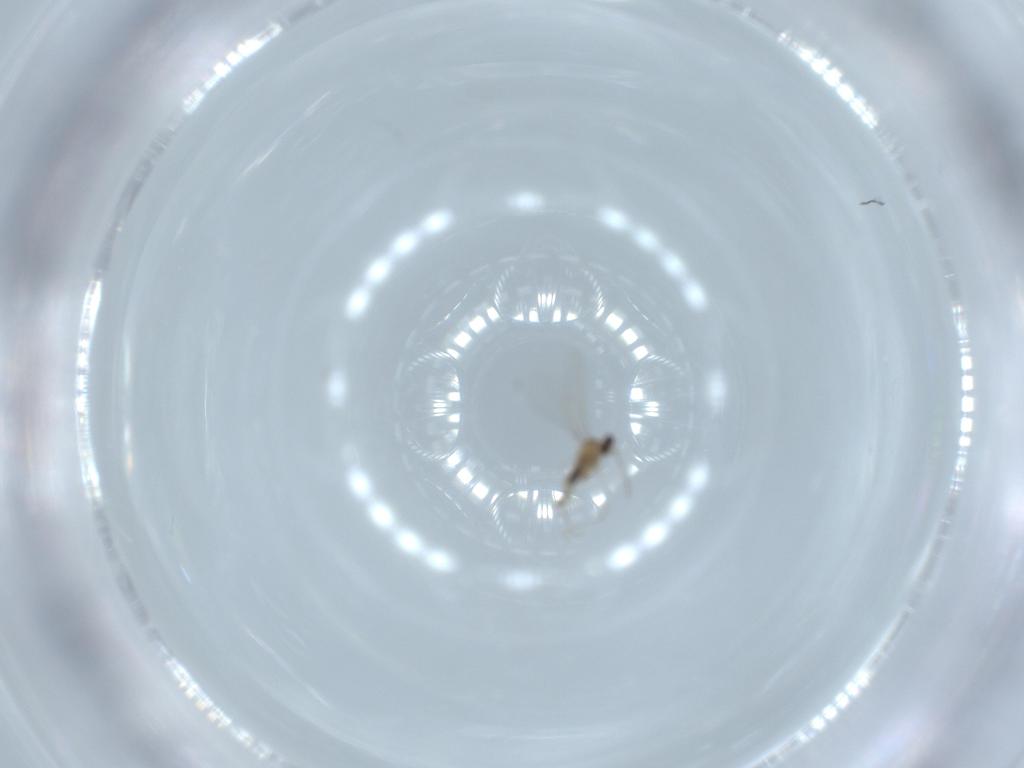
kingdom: Animalia
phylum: Arthropoda
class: Insecta
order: Diptera
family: Cecidomyiidae
